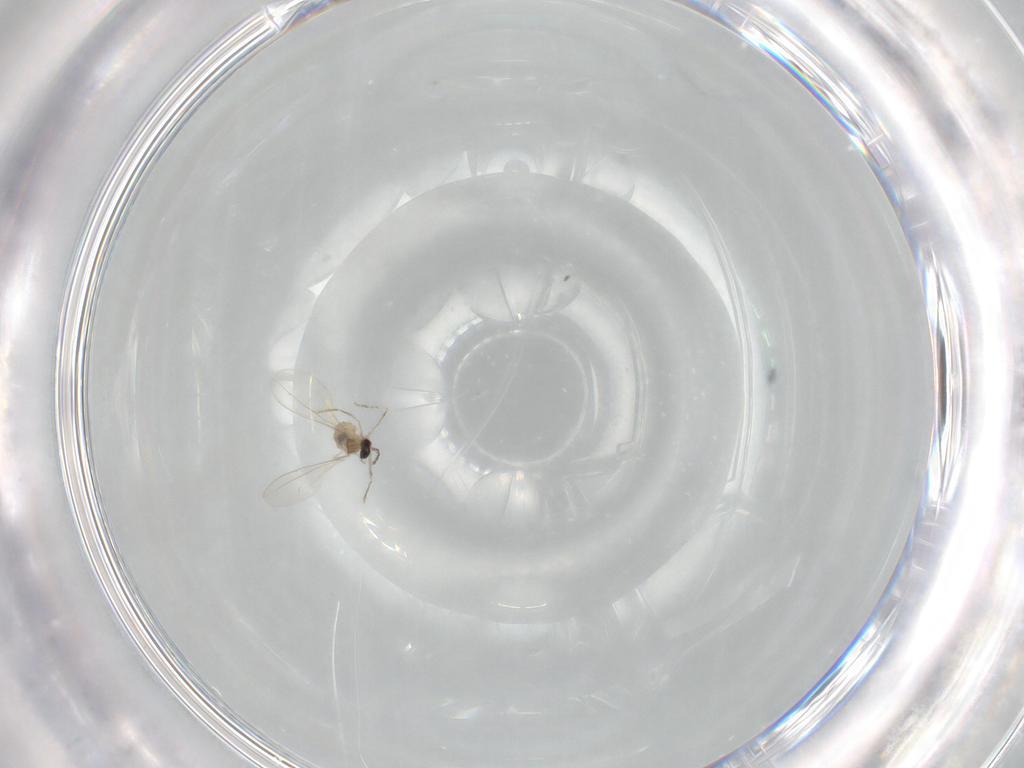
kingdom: Animalia
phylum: Arthropoda
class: Insecta
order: Diptera
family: Cecidomyiidae
